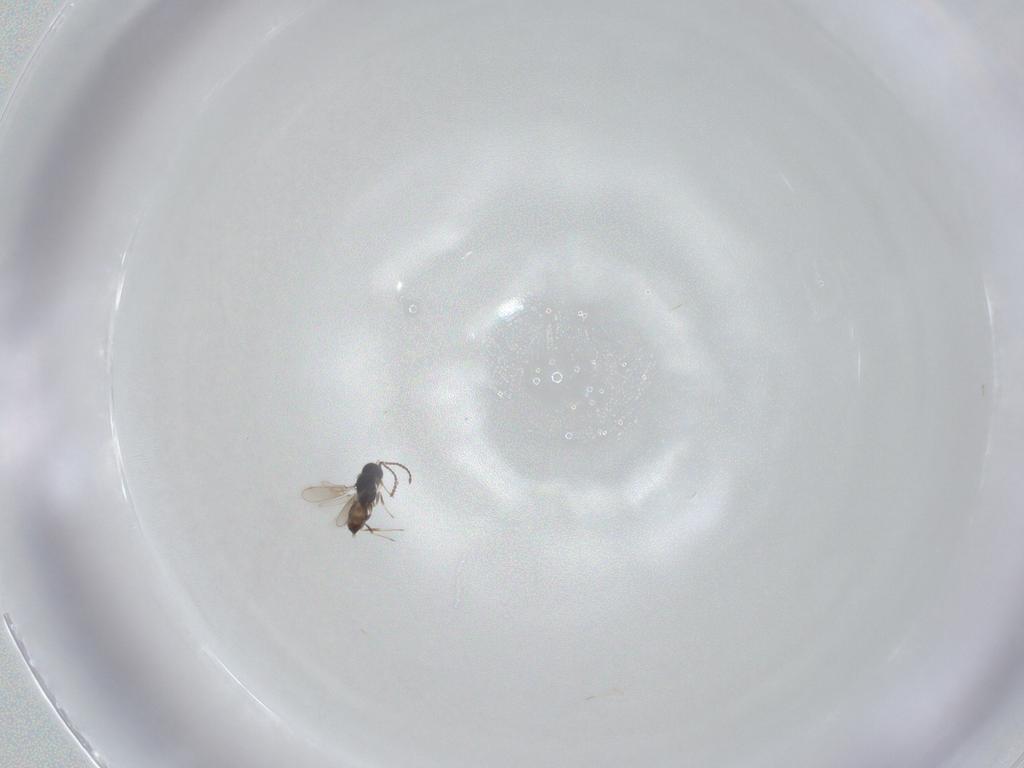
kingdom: Animalia
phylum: Arthropoda
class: Insecta
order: Hymenoptera
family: Scelionidae
